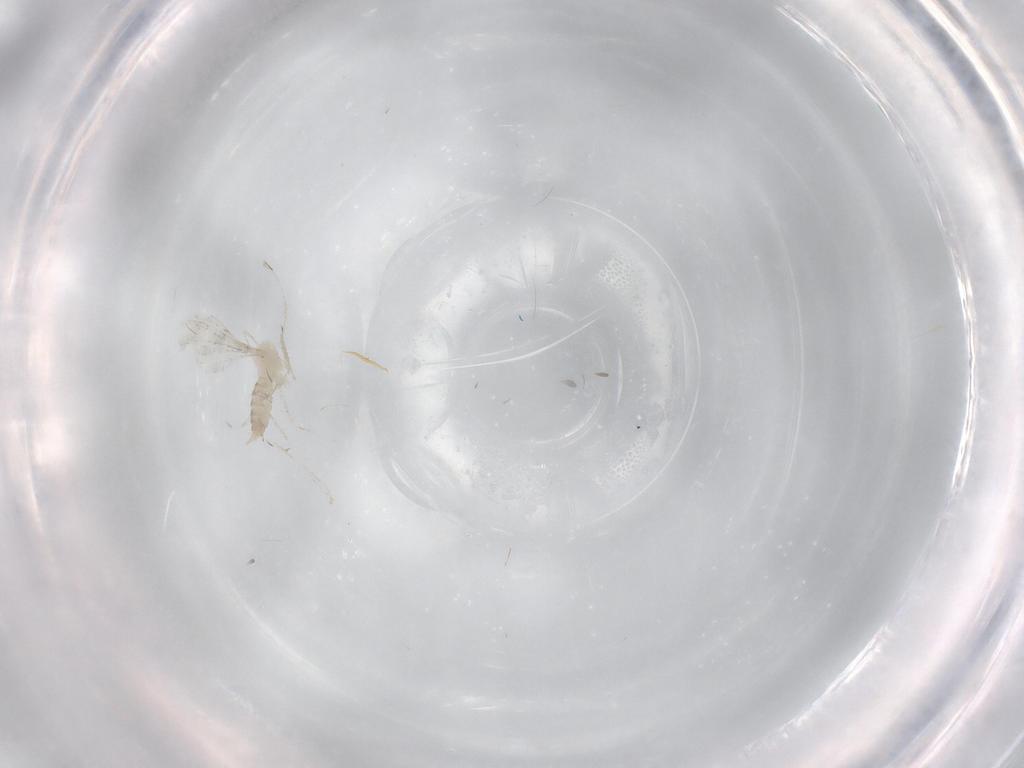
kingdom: Animalia
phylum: Arthropoda
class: Insecta
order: Diptera
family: Cecidomyiidae
